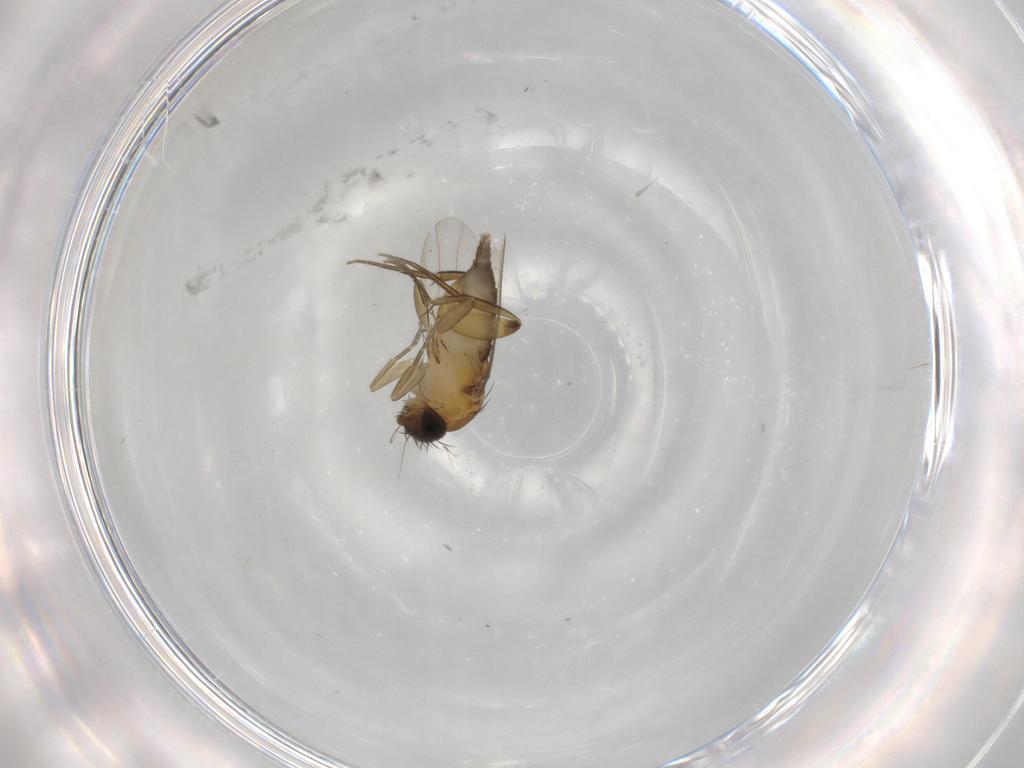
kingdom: Animalia
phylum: Arthropoda
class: Insecta
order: Diptera
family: Phoridae
